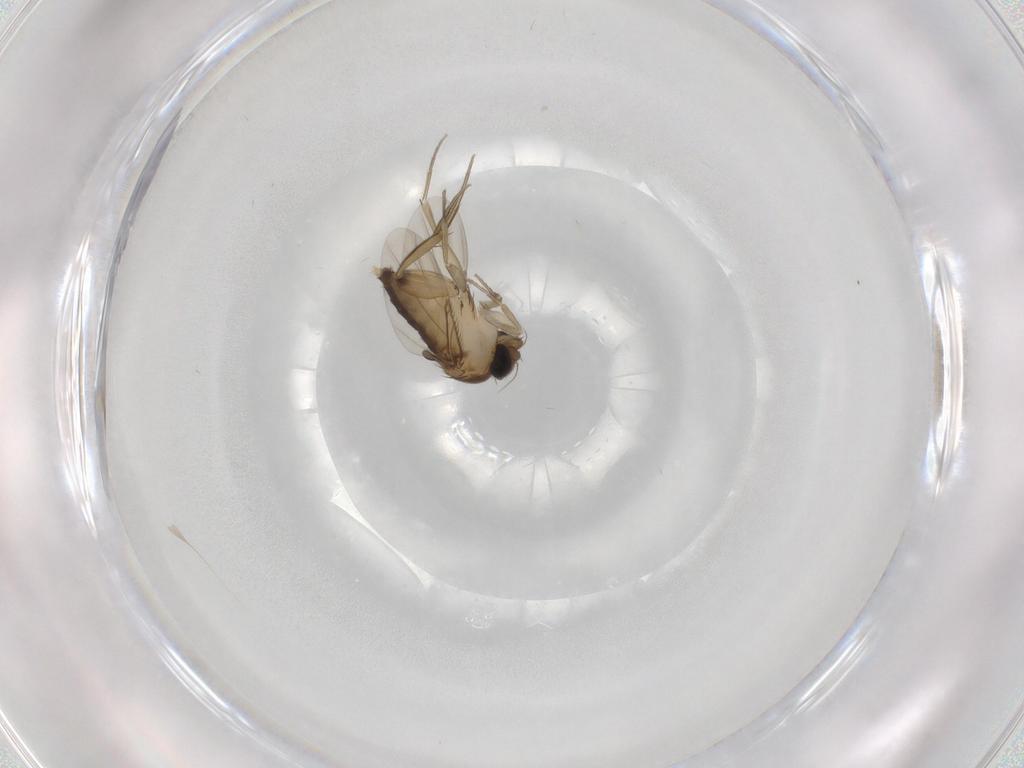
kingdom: Animalia
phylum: Arthropoda
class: Insecta
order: Diptera
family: Phoridae
